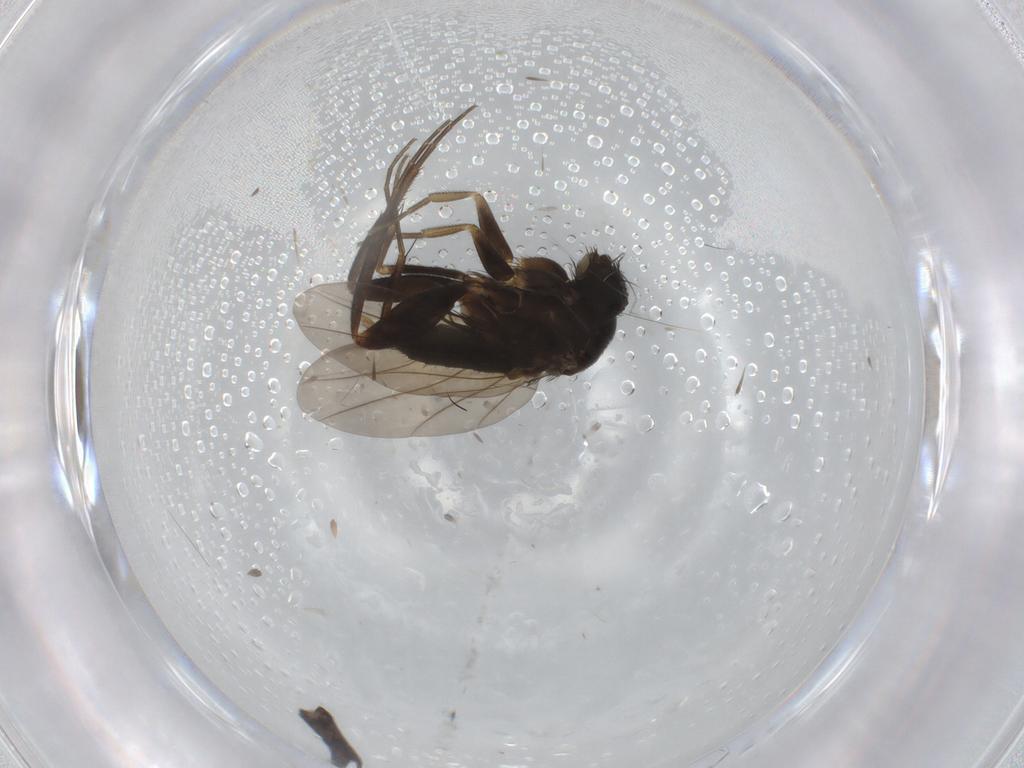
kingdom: Animalia
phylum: Arthropoda
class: Insecta
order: Diptera
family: Phoridae
